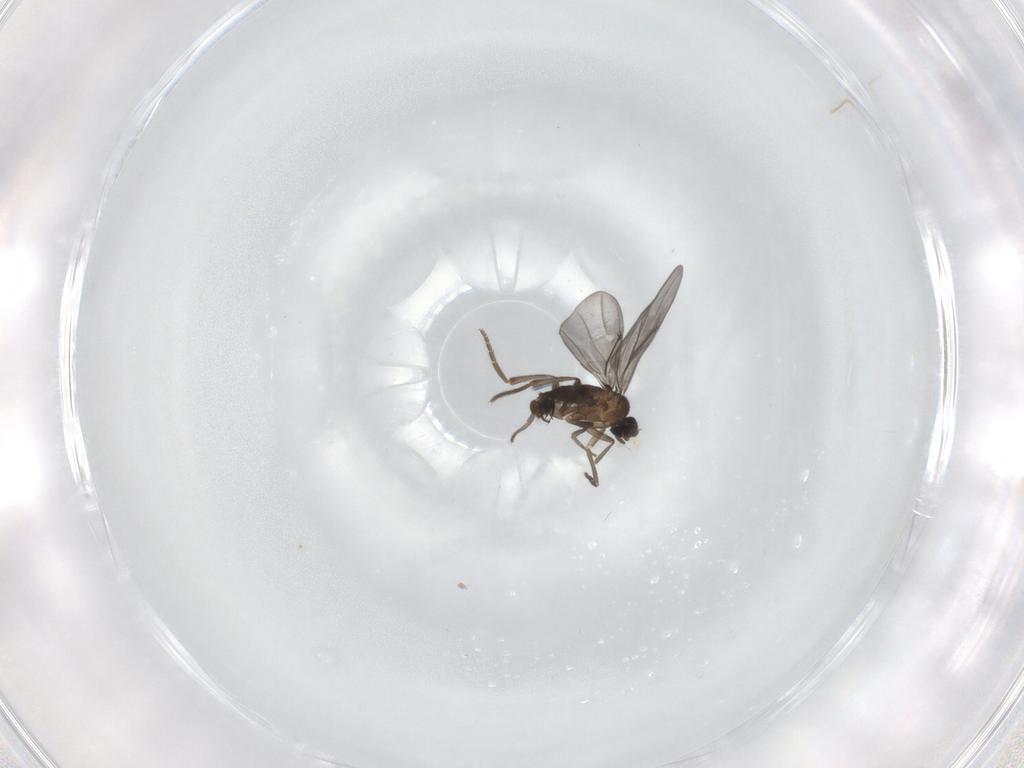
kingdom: Animalia
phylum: Arthropoda
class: Insecta
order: Diptera
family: Phoridae
